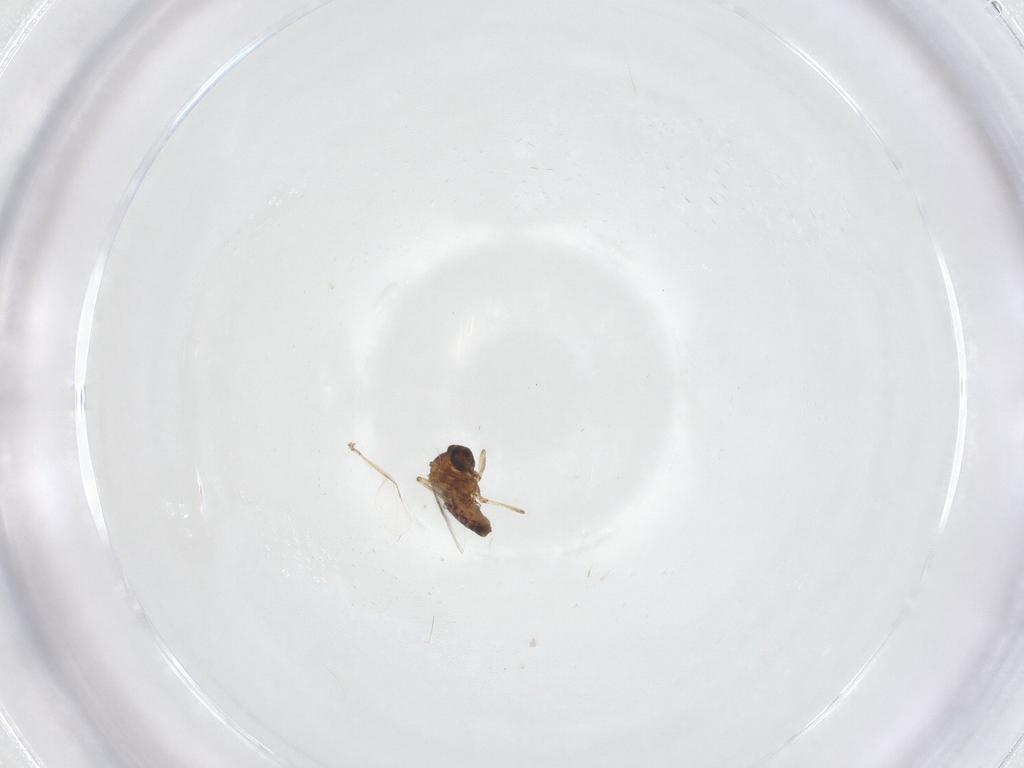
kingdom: Animalia
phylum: Arthropoda
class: Insecta
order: Diptera
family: Ceratopogonidae
